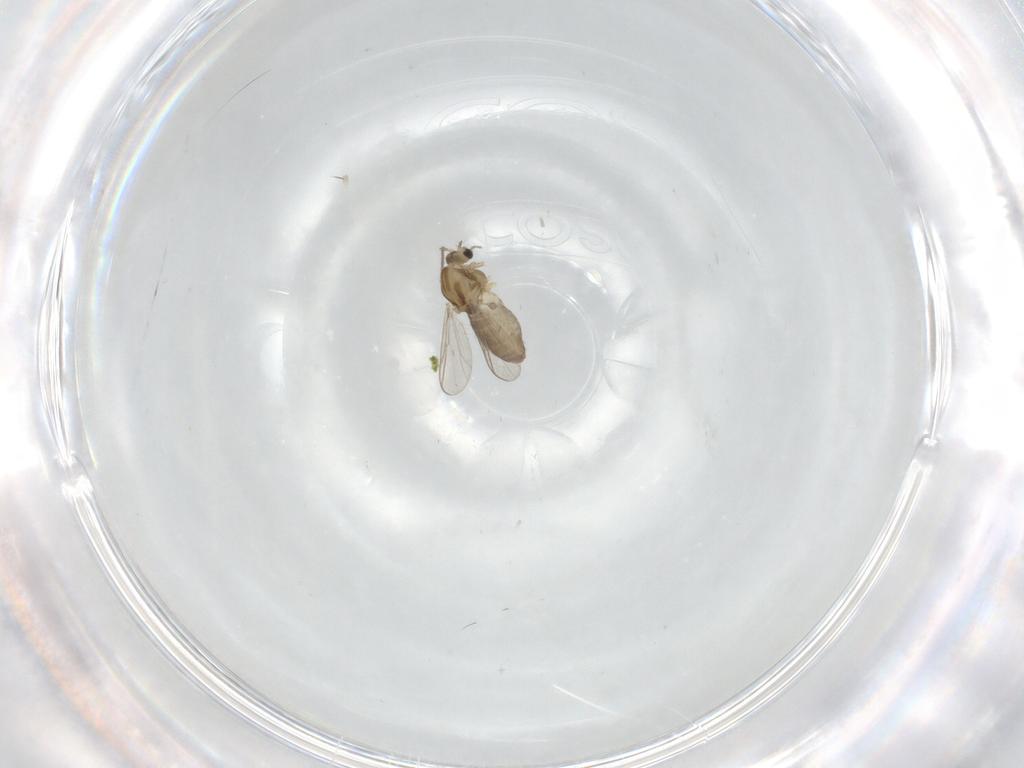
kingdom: Animalia
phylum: Arthropoda
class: Insecta
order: Diptera
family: Chironomidae
